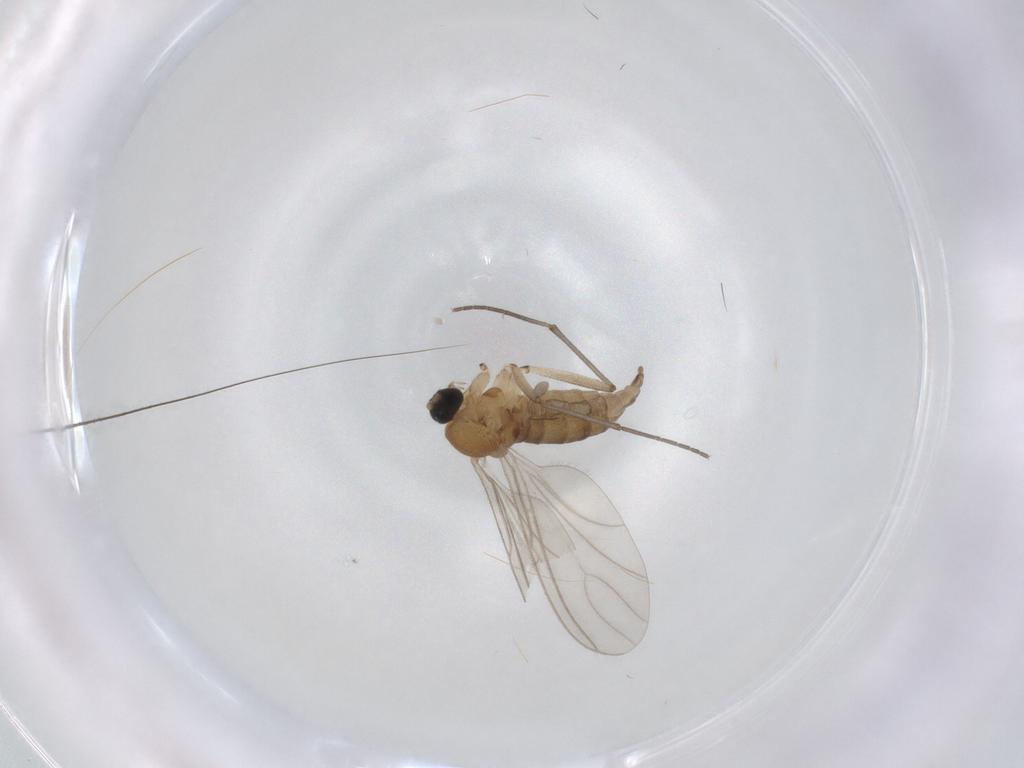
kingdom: Animalia
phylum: Arthropoda
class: Insecta
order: Diptera
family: Sciaridae
